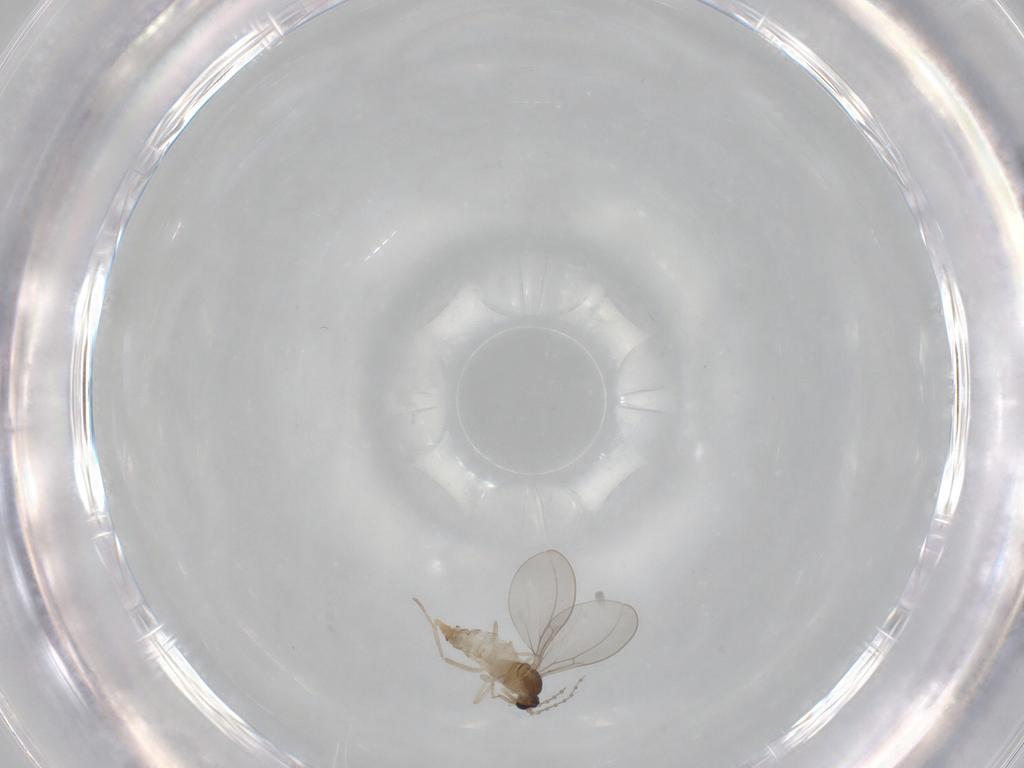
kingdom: Animalia
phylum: Arthropoda
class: Insecta
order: Diptera
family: Cecidomyiidae
